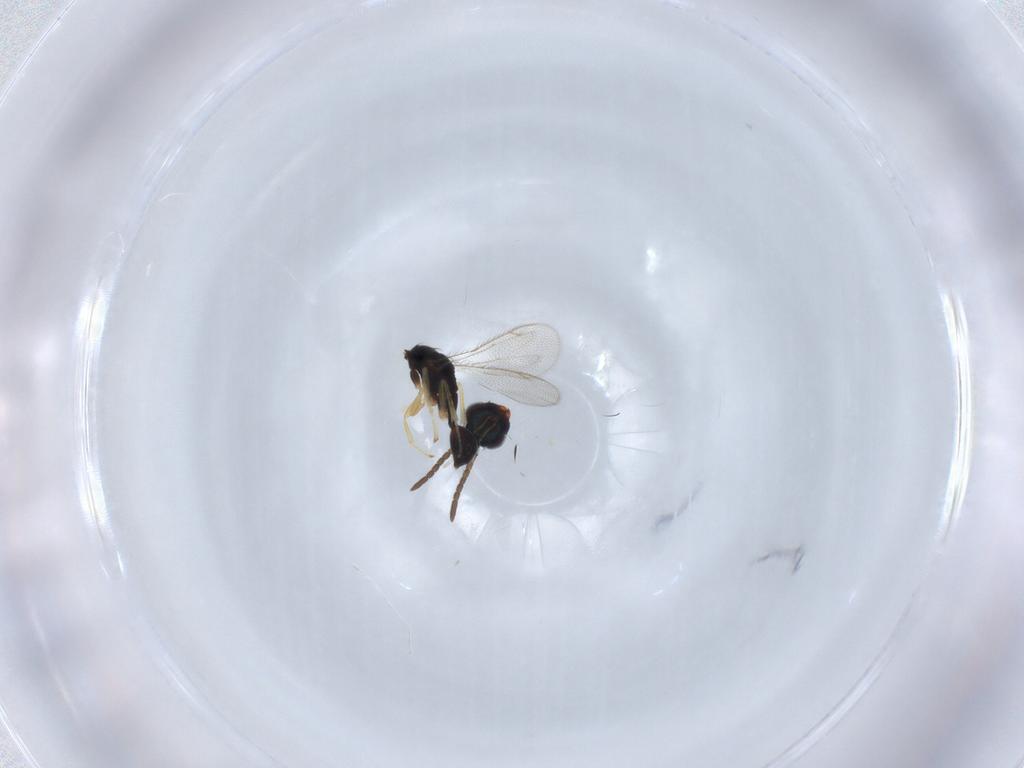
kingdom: Animalia
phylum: Arthropoda
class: Insecta
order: Hymenoptera
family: Diparidae
